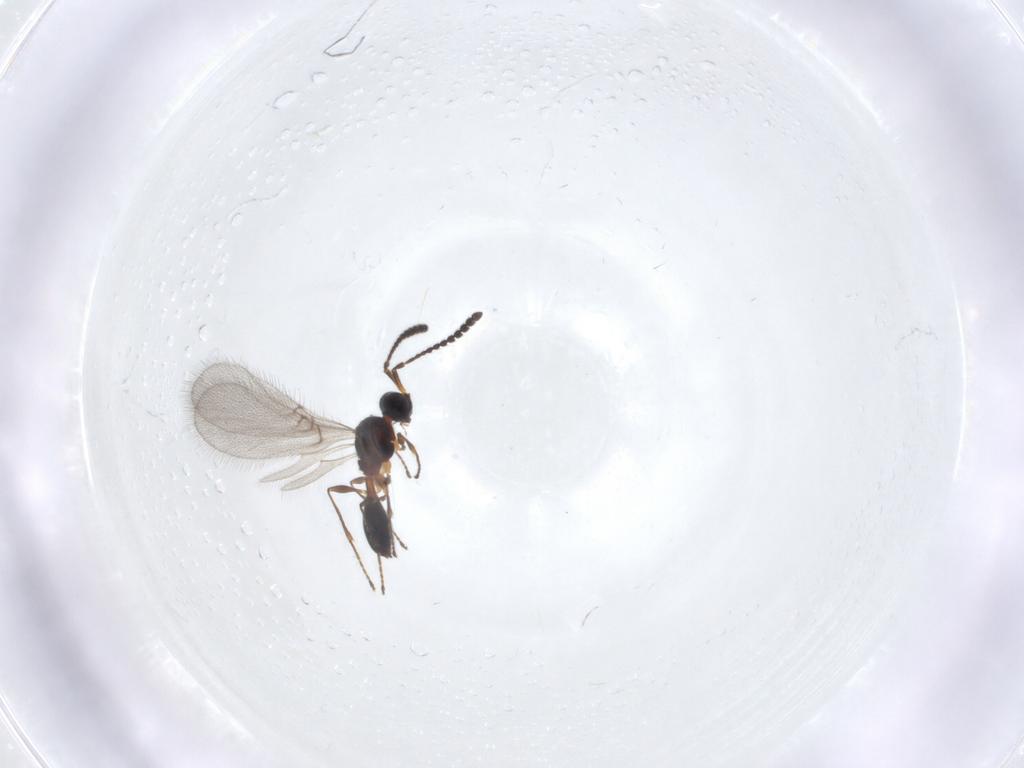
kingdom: Animalia
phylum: Arthropoda
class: Insecta
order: Hymenoptera
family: Diapriidae
